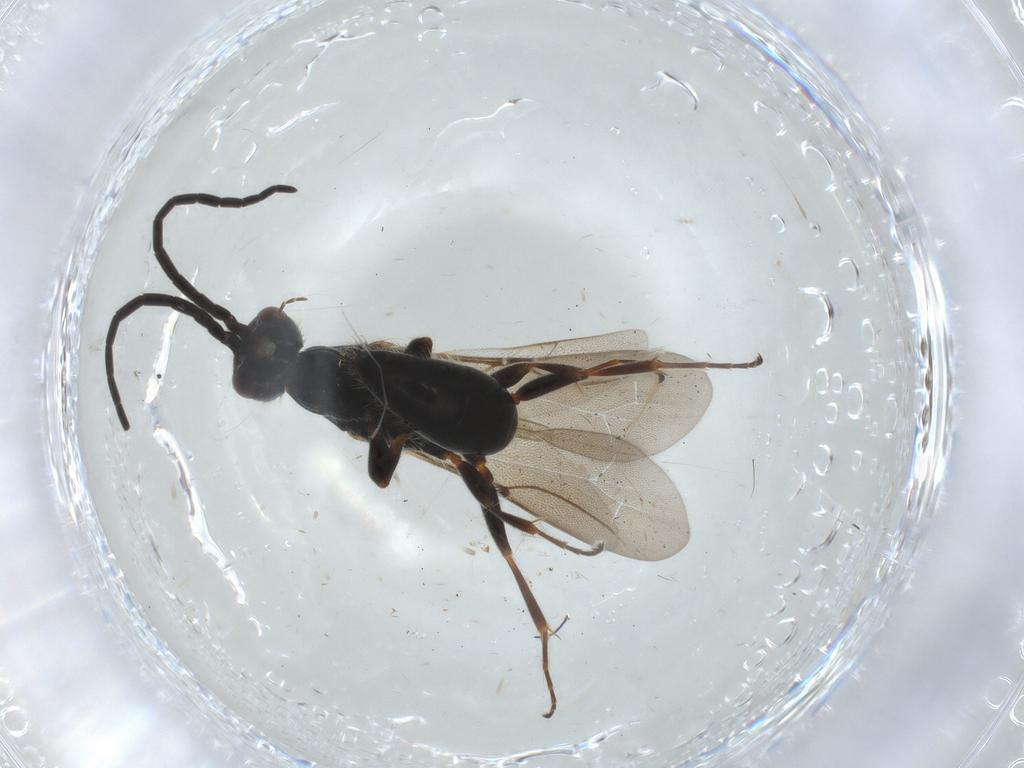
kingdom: Animalia
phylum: Arthropoda
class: Insecta
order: Hymenoptera
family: Bethylidae
